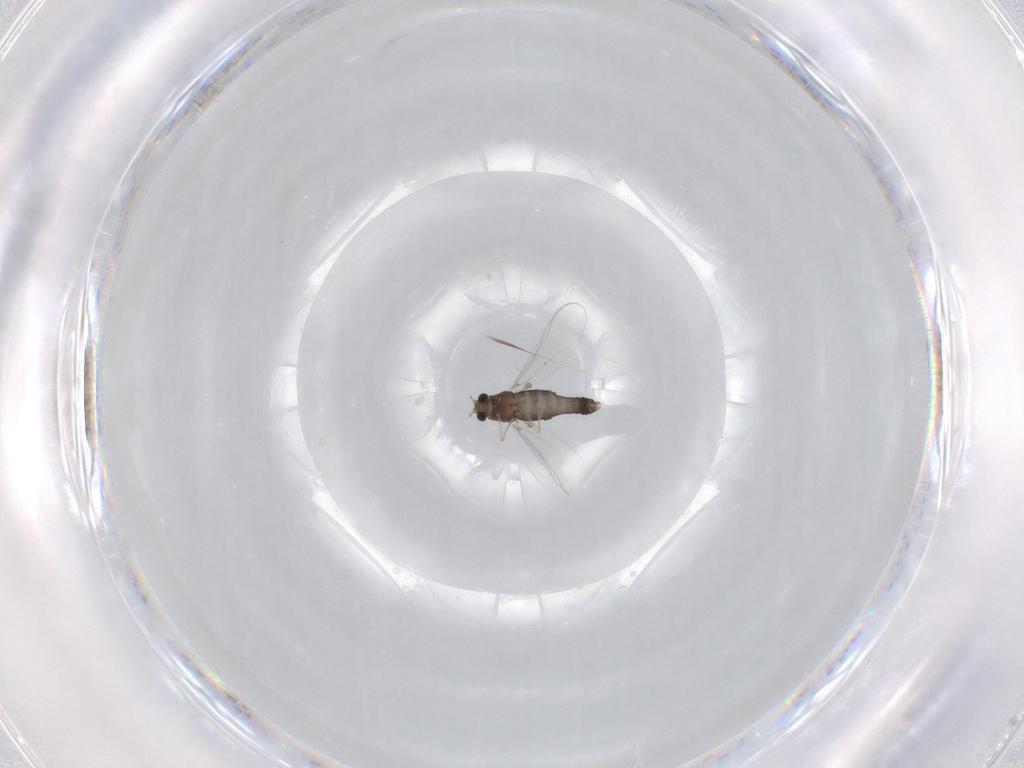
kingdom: Animalia
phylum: Arthropoda
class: Insecta
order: Diptera
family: Chironomidae
